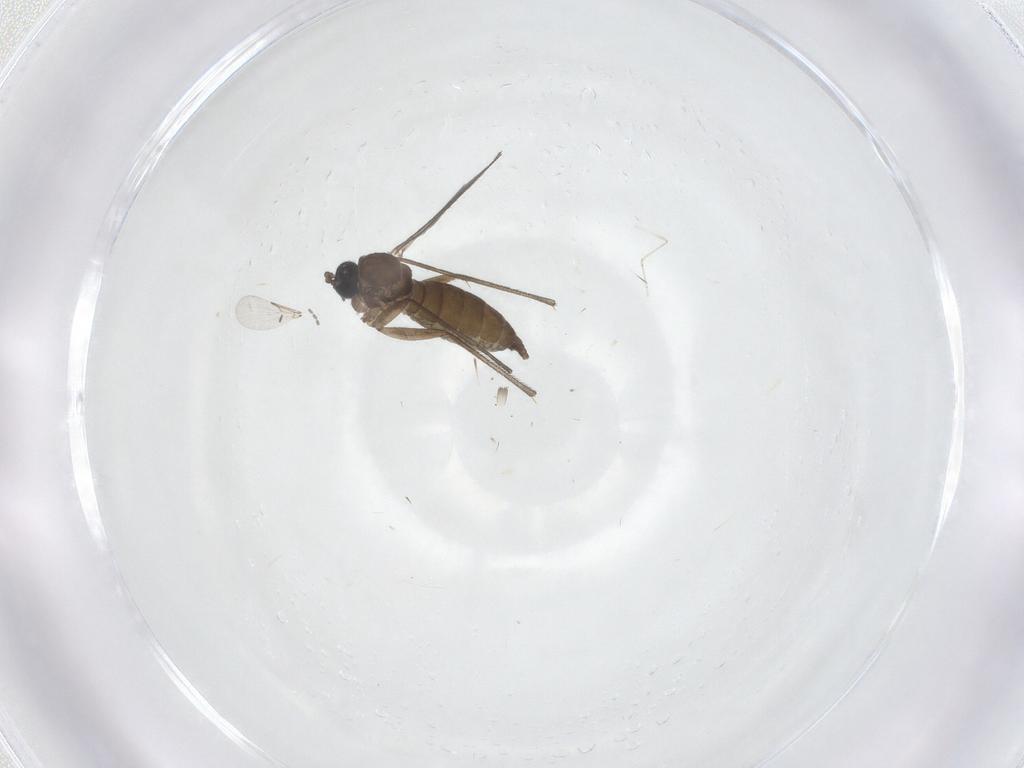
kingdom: Animalia
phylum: Arthropoda
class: Insecta
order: Diptera
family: Sciaridae
